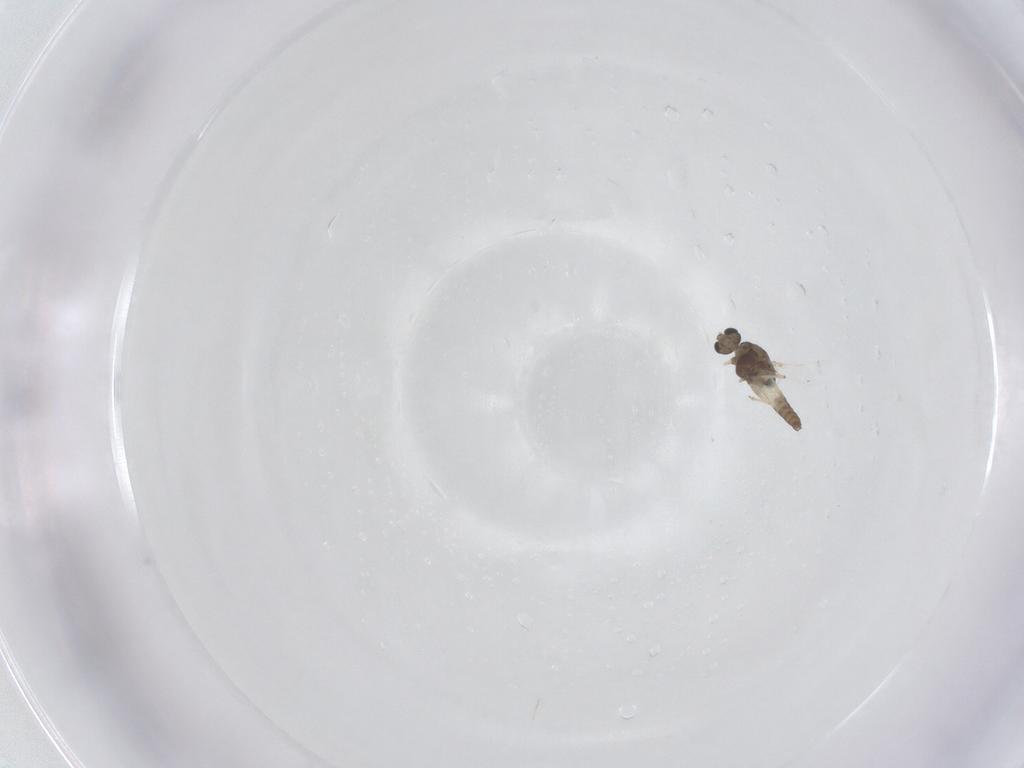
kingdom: Animalia
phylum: Arthropoda
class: Insecta
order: Diptera
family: Chironomidae
